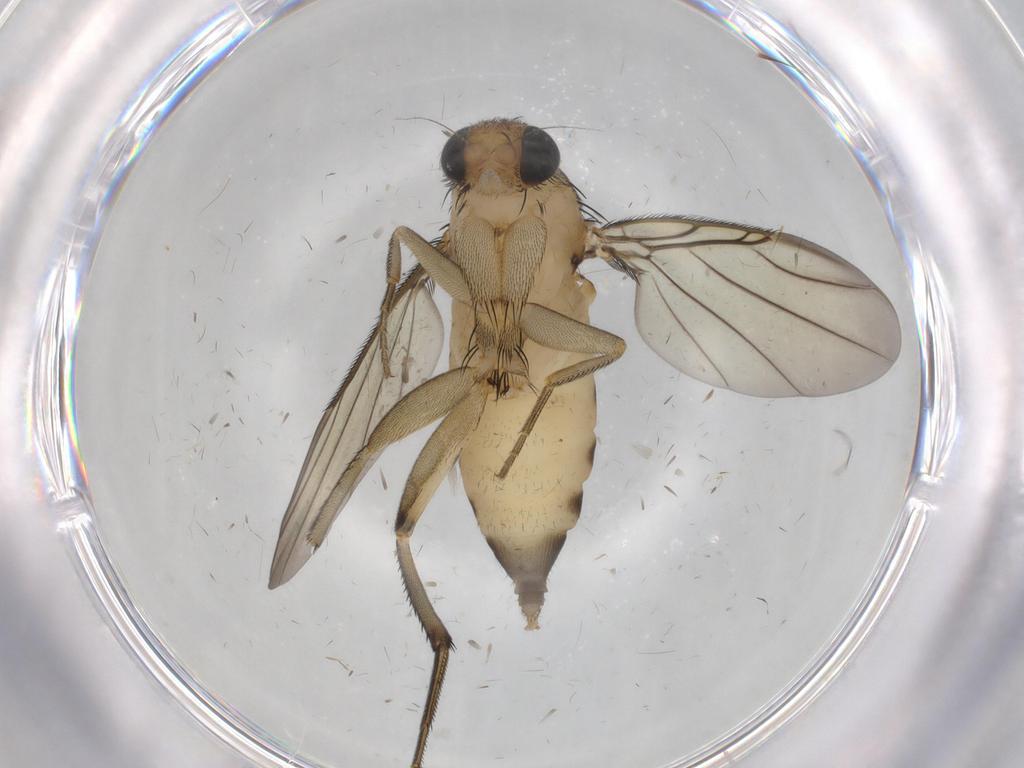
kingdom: Animalia
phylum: Arthropoda
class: Insecta
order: Diptera
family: Phoridae
